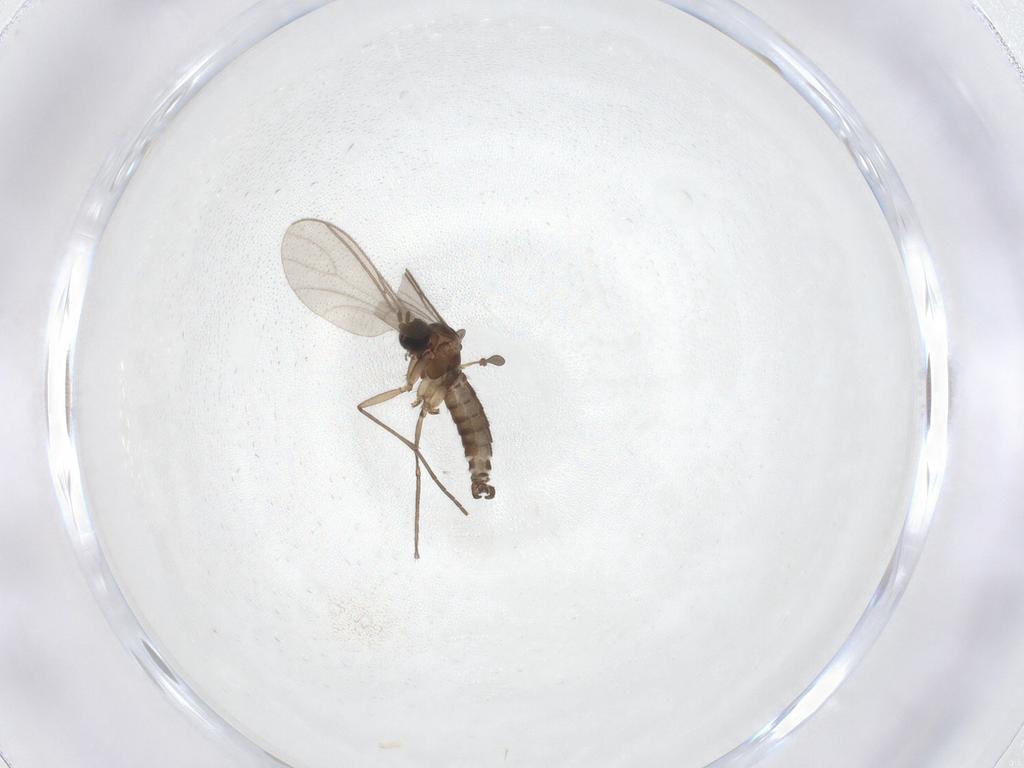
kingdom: Animalia
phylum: Arthropoda
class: Insecta
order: Diptera
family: Sciaridae
